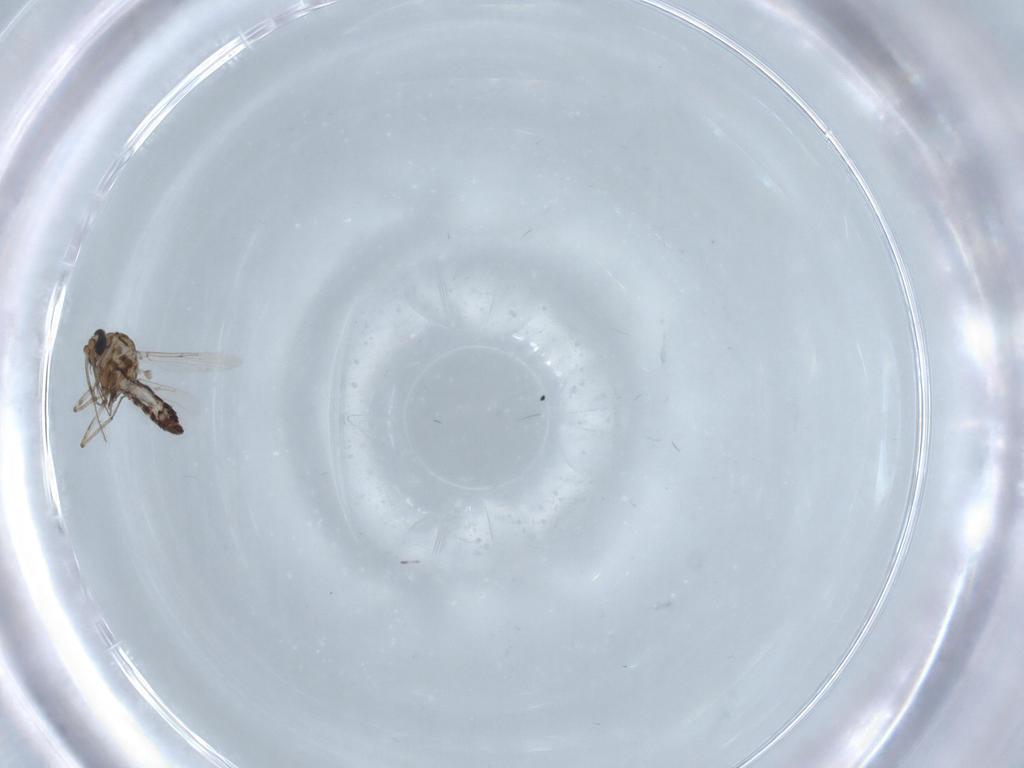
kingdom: Animalia
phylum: Arthropoda
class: Insecta
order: Diptera
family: Ceratopogonidae
